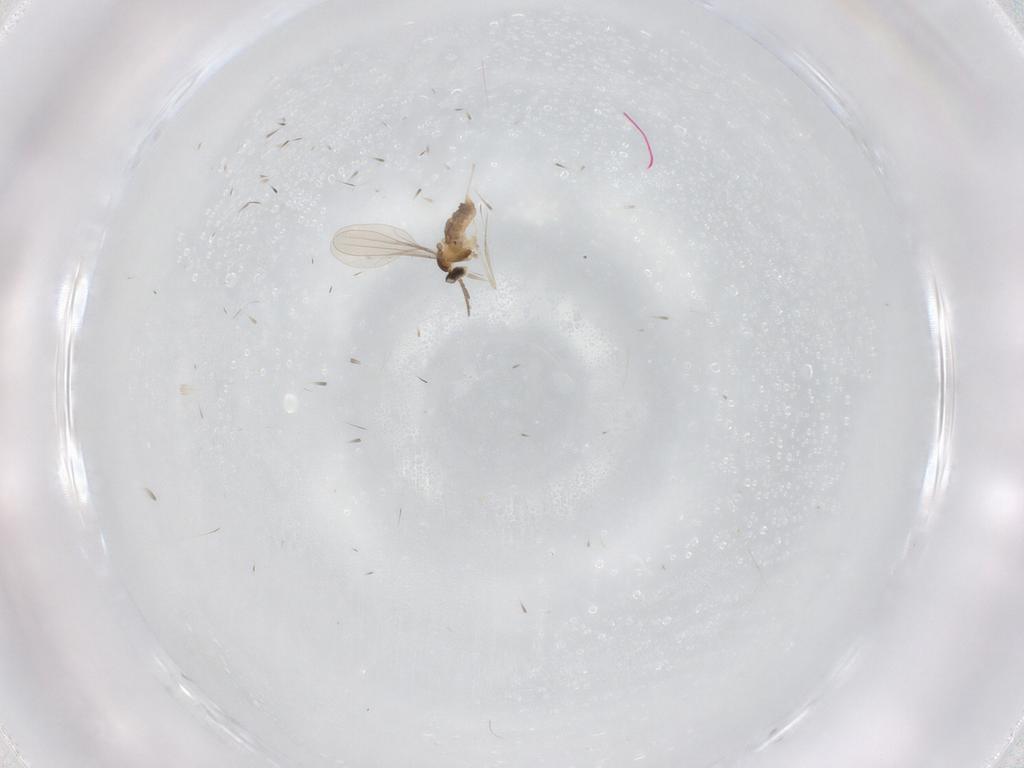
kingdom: Animalia
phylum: Arthropoda
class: Insecta
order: Diptera
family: Cecidomyiidae
